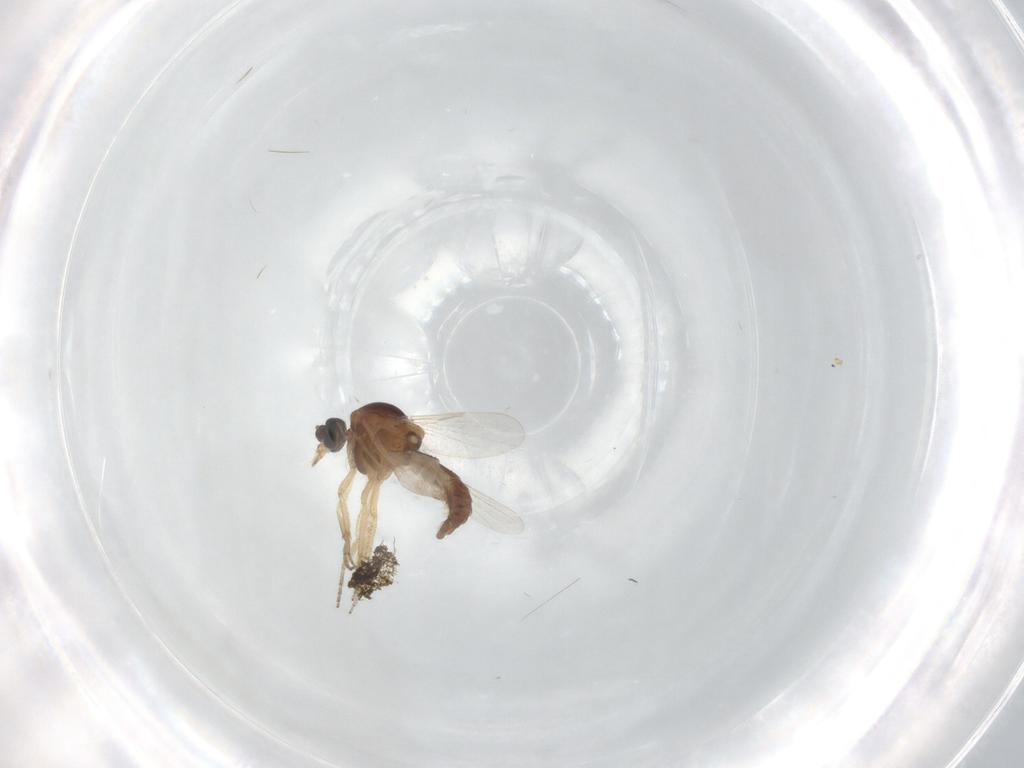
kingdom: Animalia
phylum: Arthropoda
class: Insecta
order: Diptera
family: Ceratopogonidae
